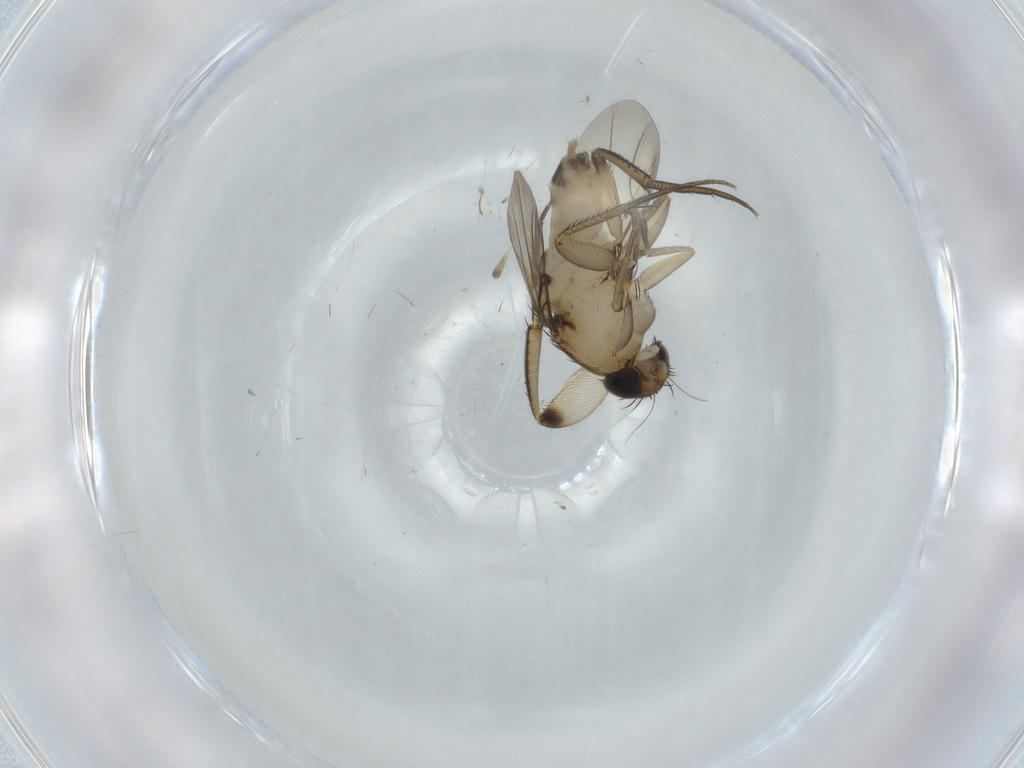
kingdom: Animalia
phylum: Arthropoda
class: Insecta
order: Diptera
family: Phoridae
